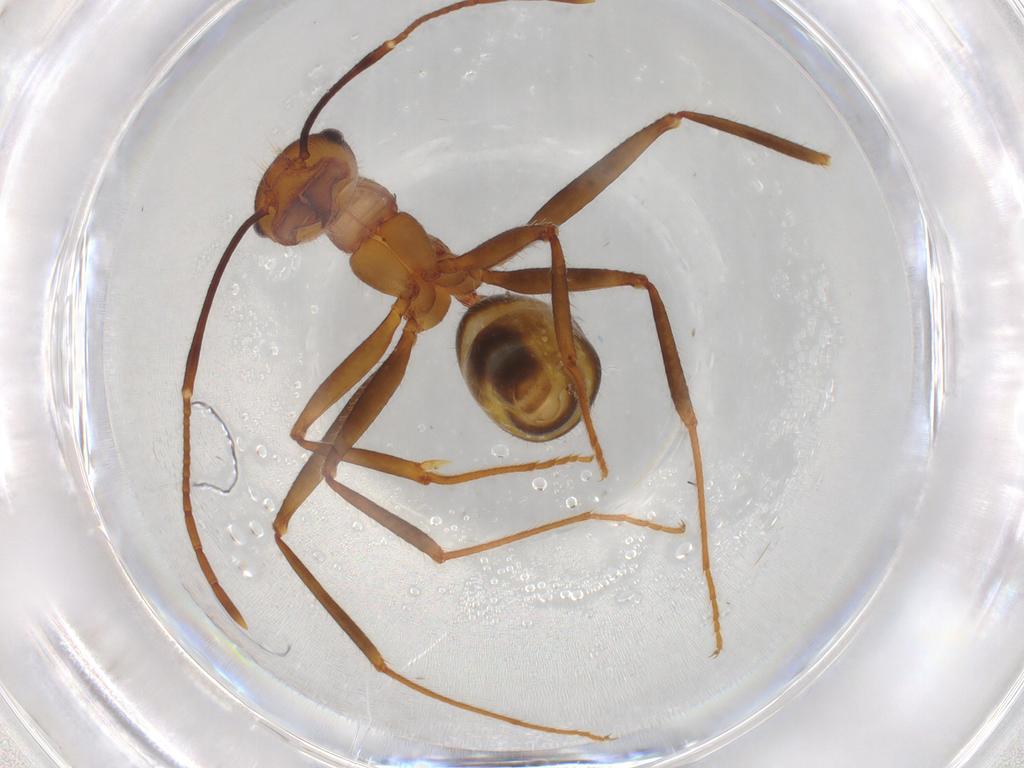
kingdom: Animalia
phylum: Arthropoda
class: Insecta
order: Hymenoptera
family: Formicidae
